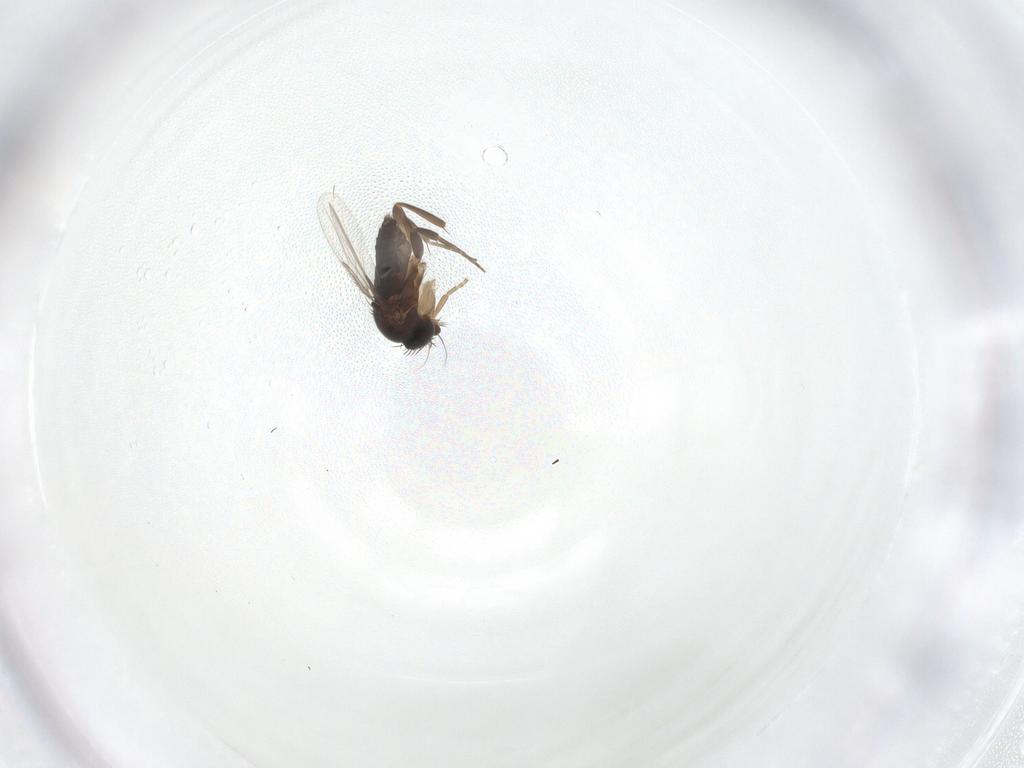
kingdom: Animalia
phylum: Arthropoda
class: Insecta
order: Diptera
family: Phoridae
